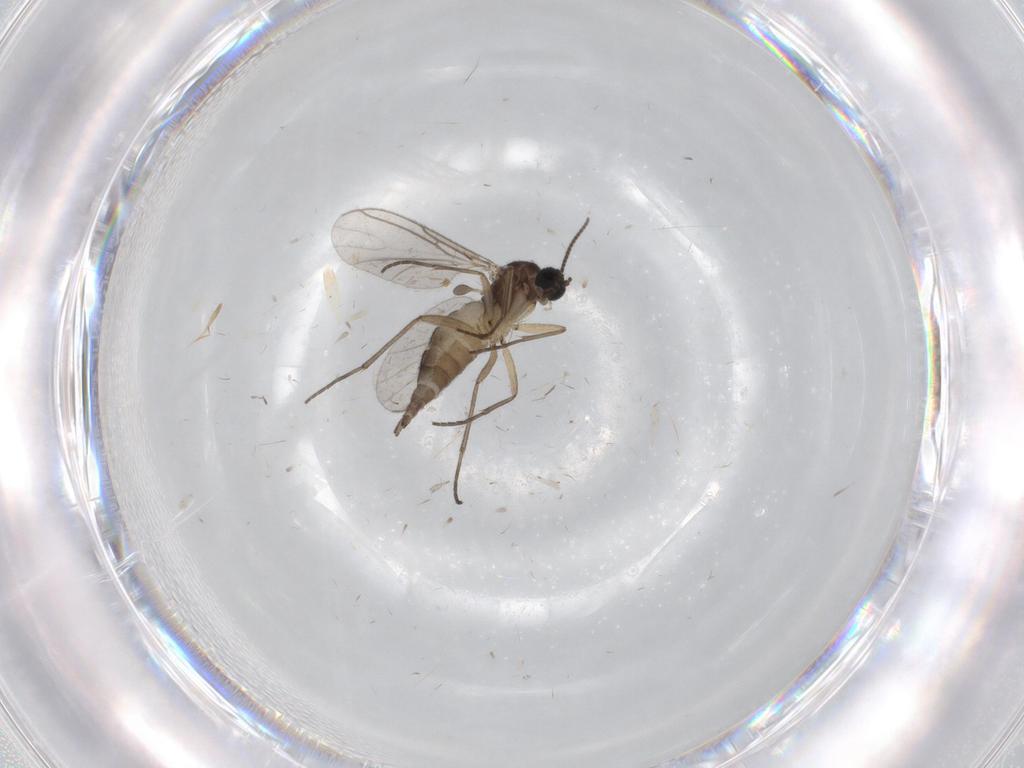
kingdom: Animalia
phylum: Arthropoda
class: Insecta
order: Diptera
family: Sciaridae
